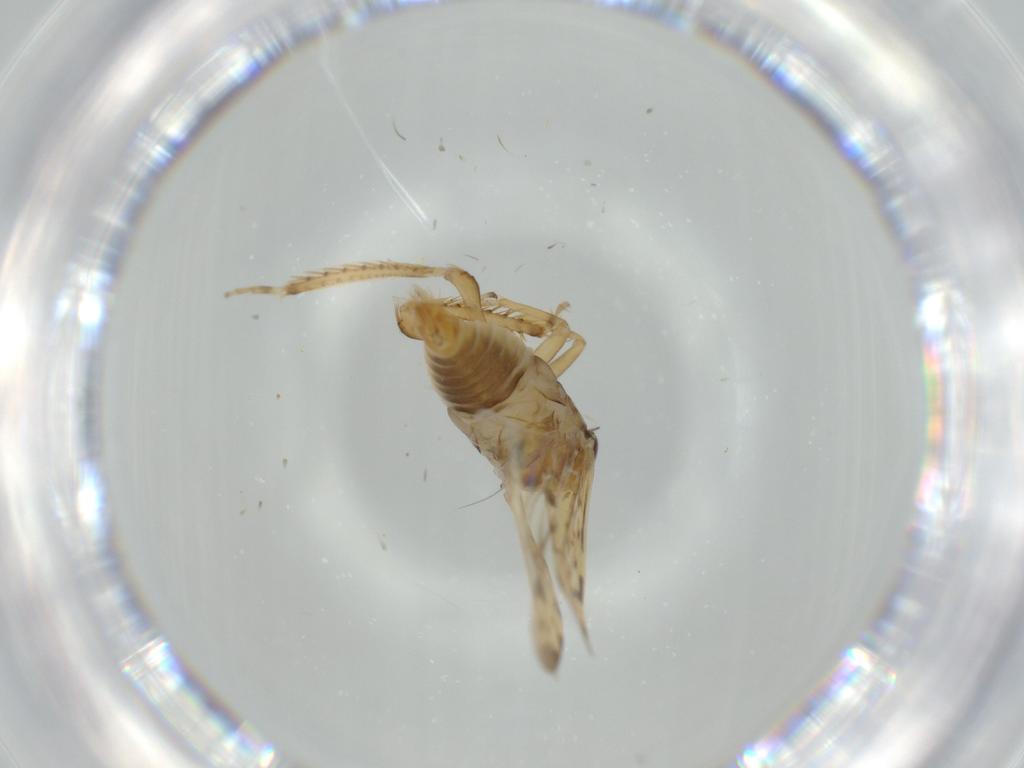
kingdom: Animalia
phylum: Arthropoda
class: Insecta
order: Hemiptera
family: Cicadellidae
